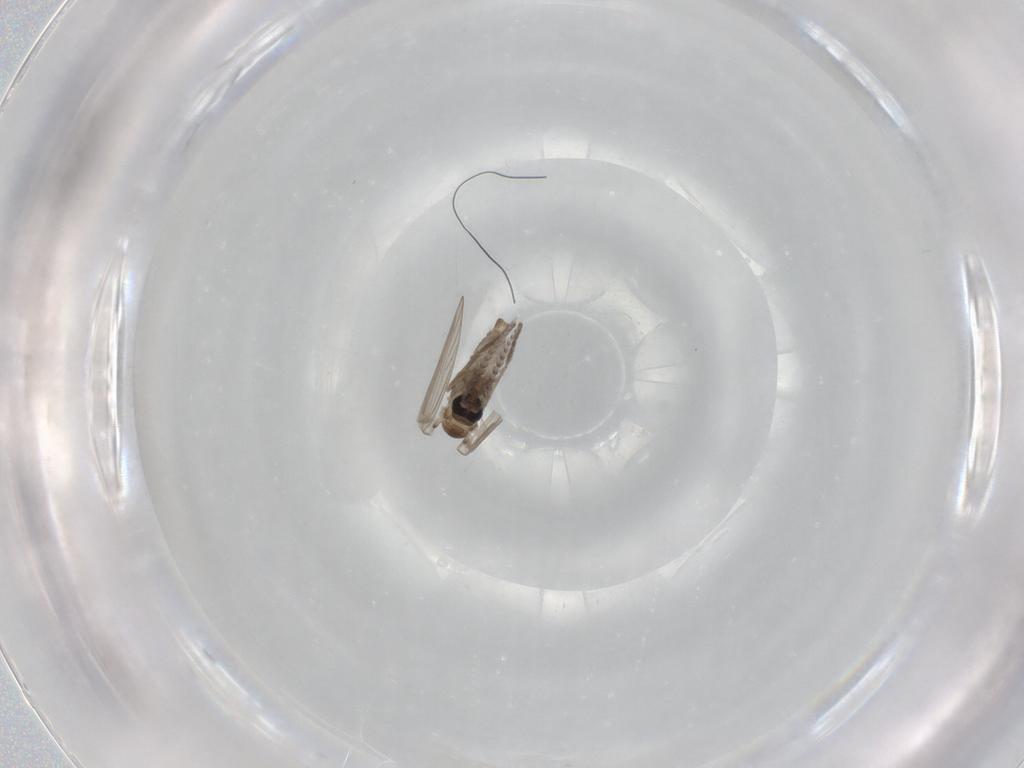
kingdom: Animalia
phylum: Arthropoda
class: Insecta
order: Diptera
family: Psychodidae
